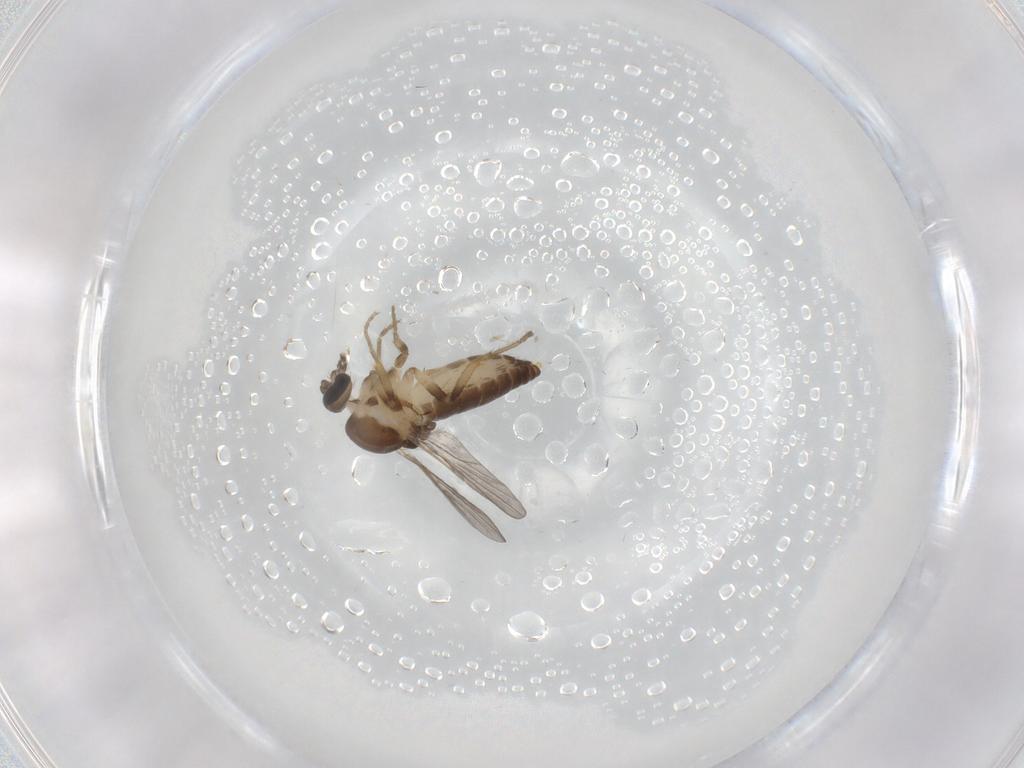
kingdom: Animalia
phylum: Arthropoda
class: Insecta
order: Diptera
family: Ceratopogonidae
